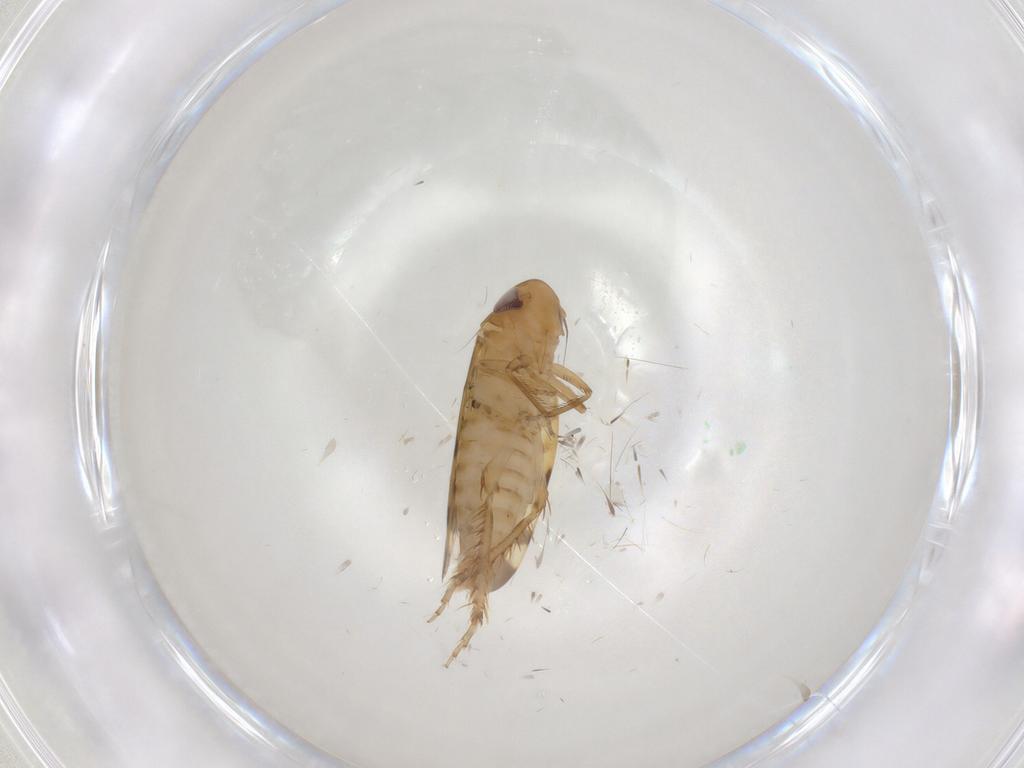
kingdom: Animalia
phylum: Arthropoda
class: Insecta
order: Hemiptera
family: Cicadellidae
